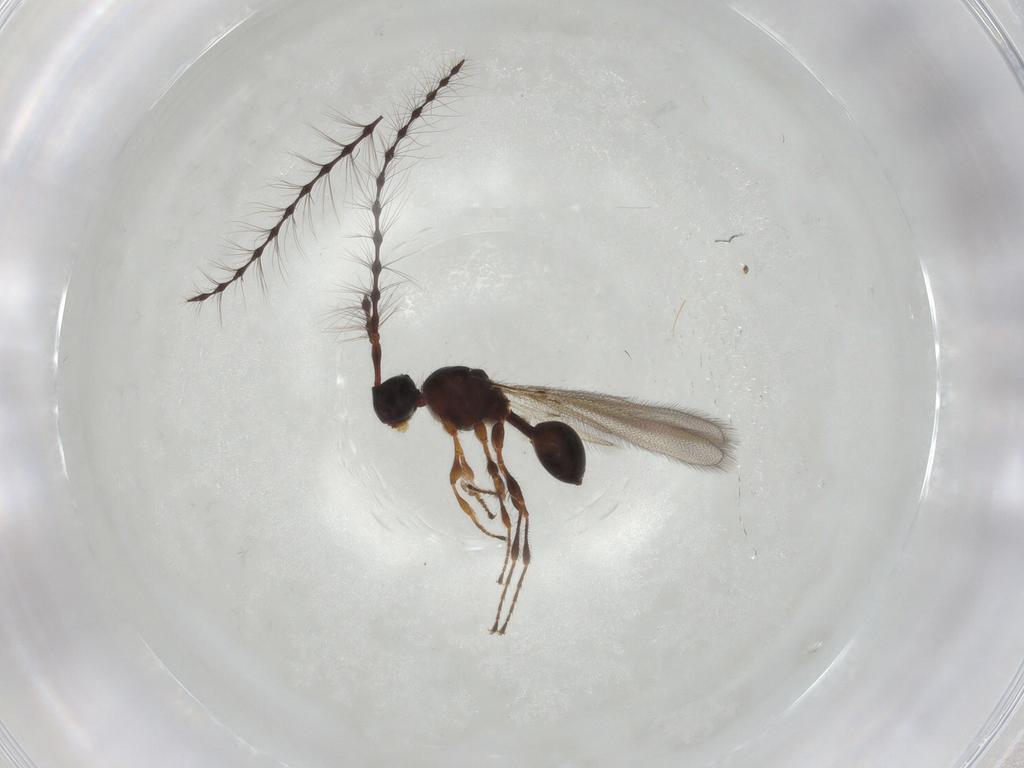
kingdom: Animalia
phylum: Arthropoda
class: Insecta
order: Hymenoptera
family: Diapriidae
